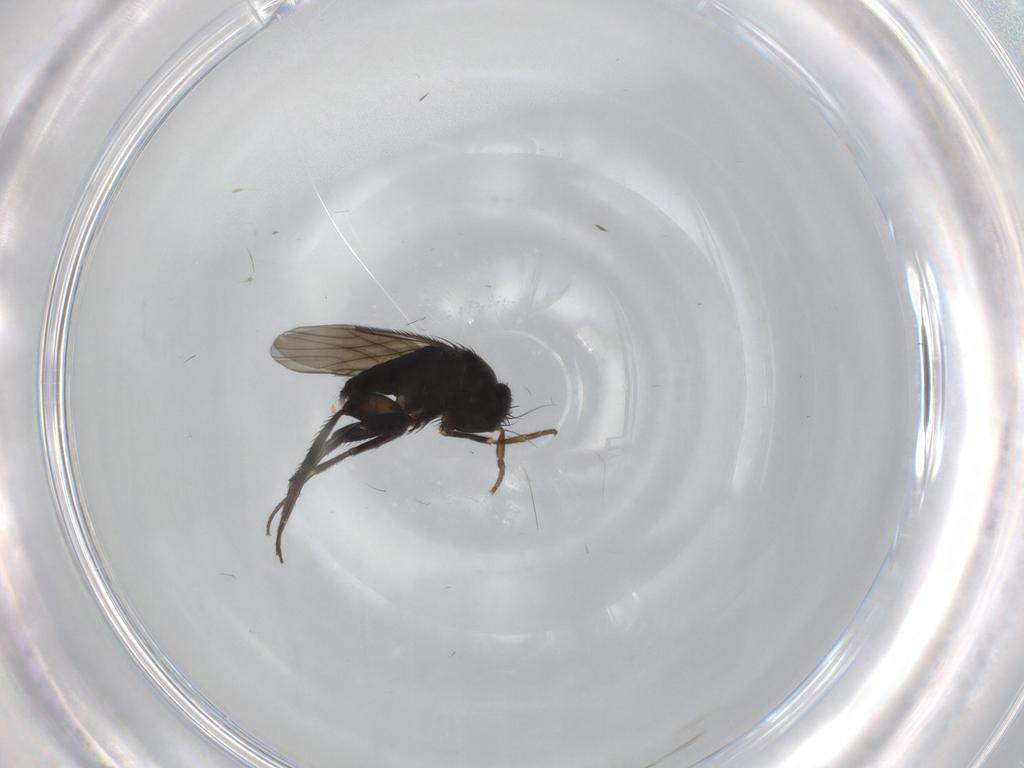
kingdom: Animalia
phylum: Arthropoda
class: Insecta
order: Diptera
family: Phoridae
